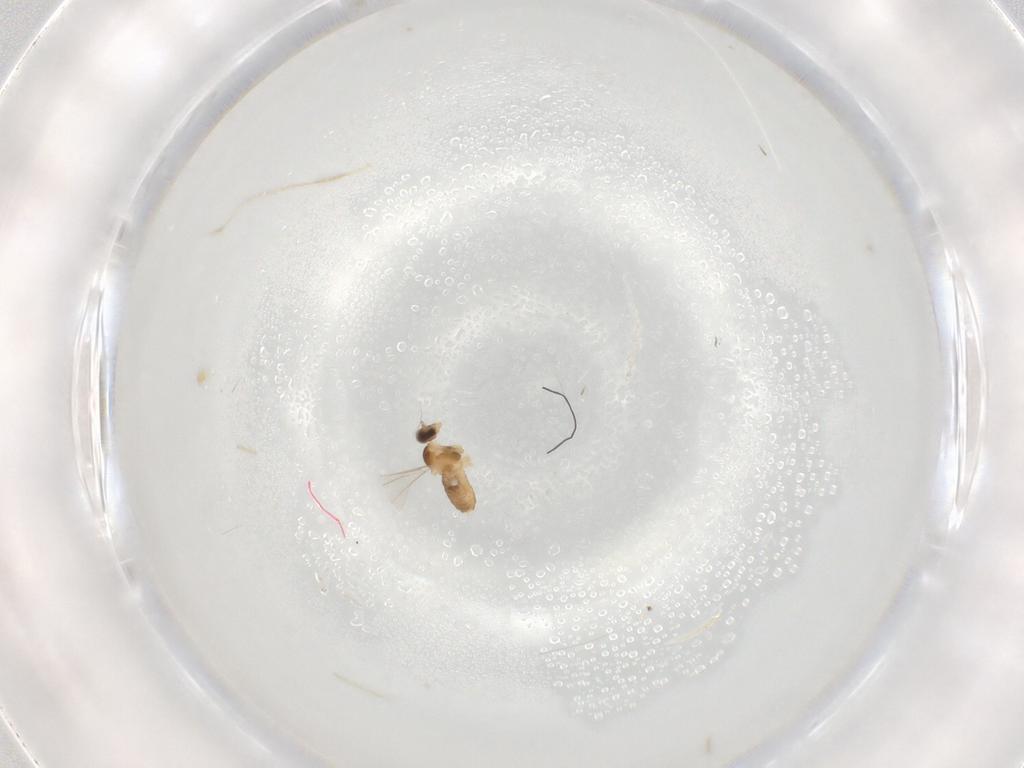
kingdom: Animalia
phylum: Arthropoda
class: Insecta
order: Diptera
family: Cecidomyiidae
